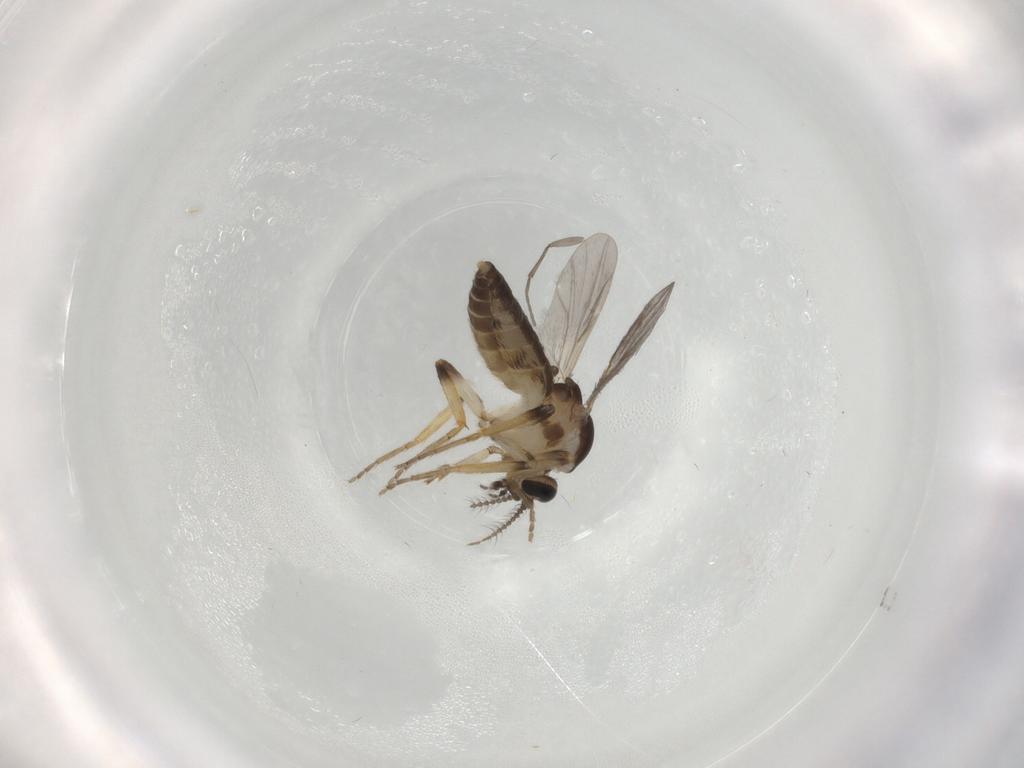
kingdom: Animalia
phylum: Arthropoda
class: Insecta
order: Diptera
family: Ceratopogonidae
